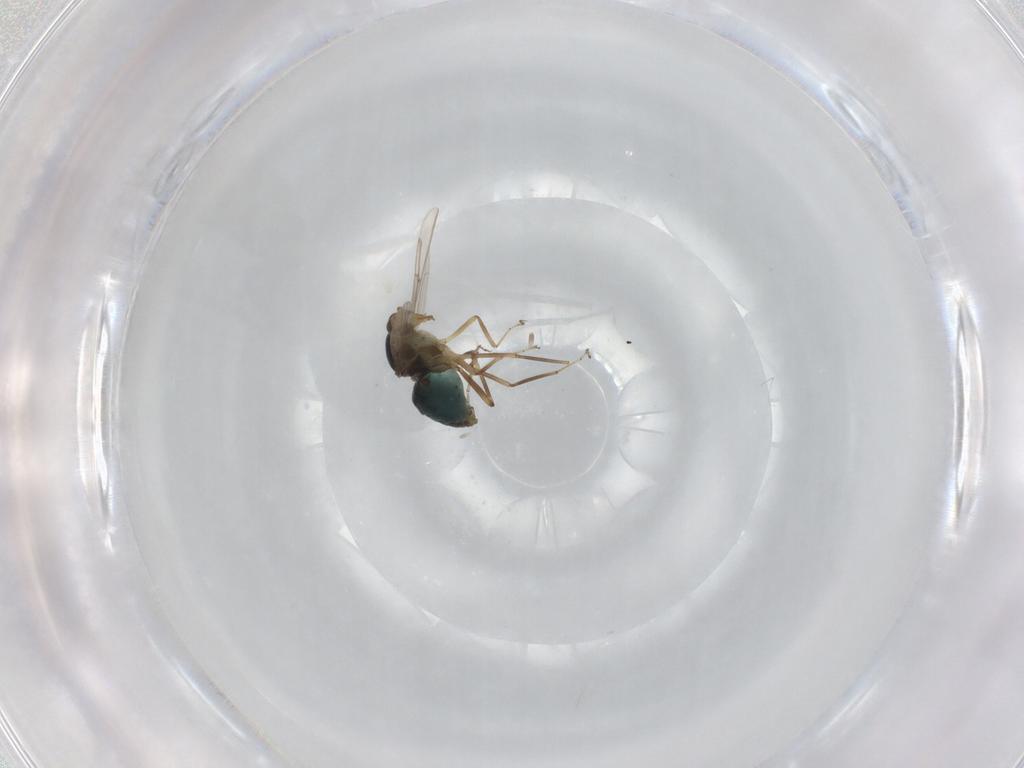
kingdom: Animalia
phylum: Arthropoda
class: Insecta
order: Diptera
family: Ceratopogonidae
